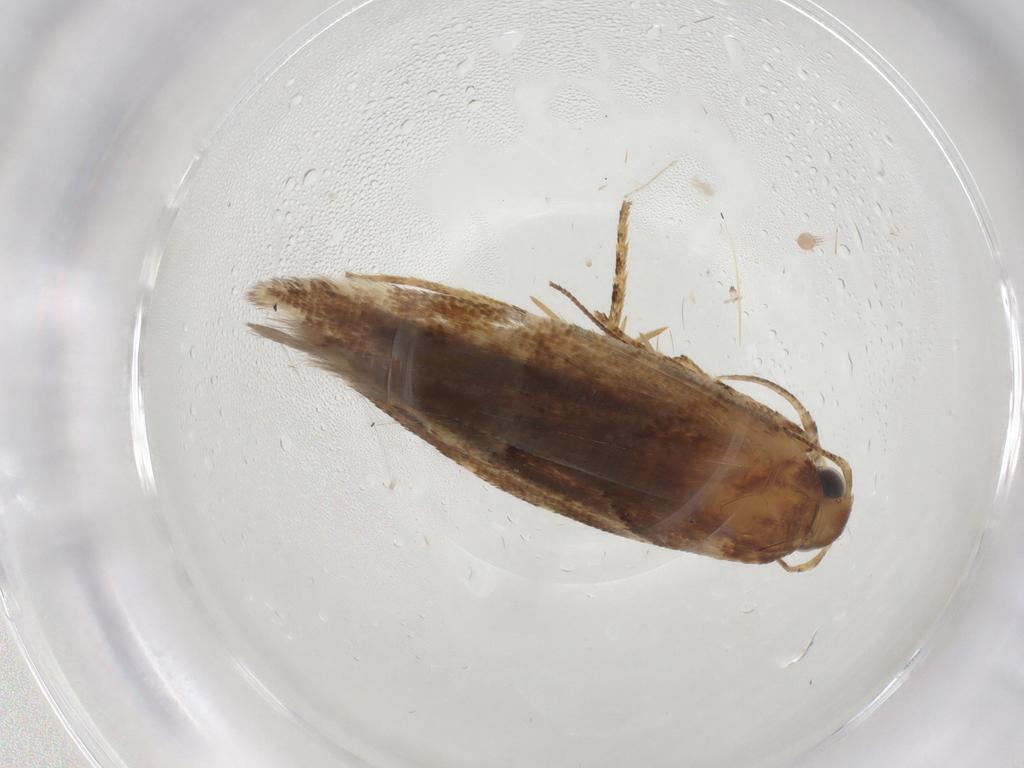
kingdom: Animalia
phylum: Arthropoda
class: Insecta
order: Lepidoptera
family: Gelechiidae
